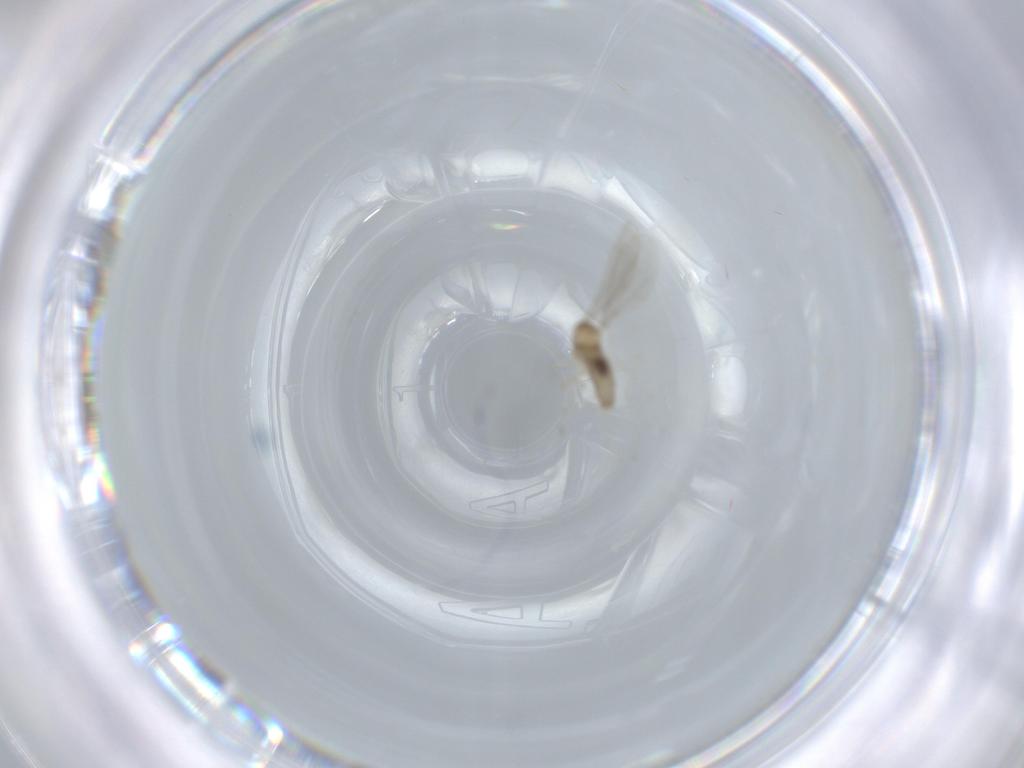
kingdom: Animalia
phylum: Arthropoda
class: Insecta
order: Diptera
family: Cecidomyiidae
